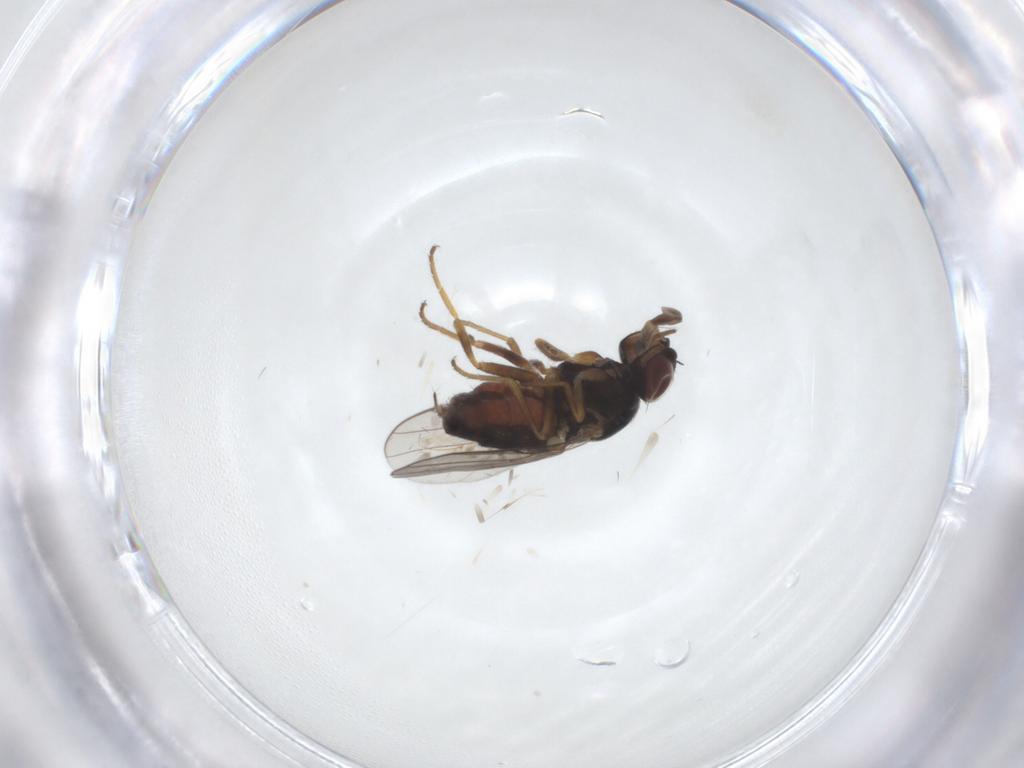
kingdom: Animalia
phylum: Arthropoda
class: Insecta
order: Diptera
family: Chloropidae
